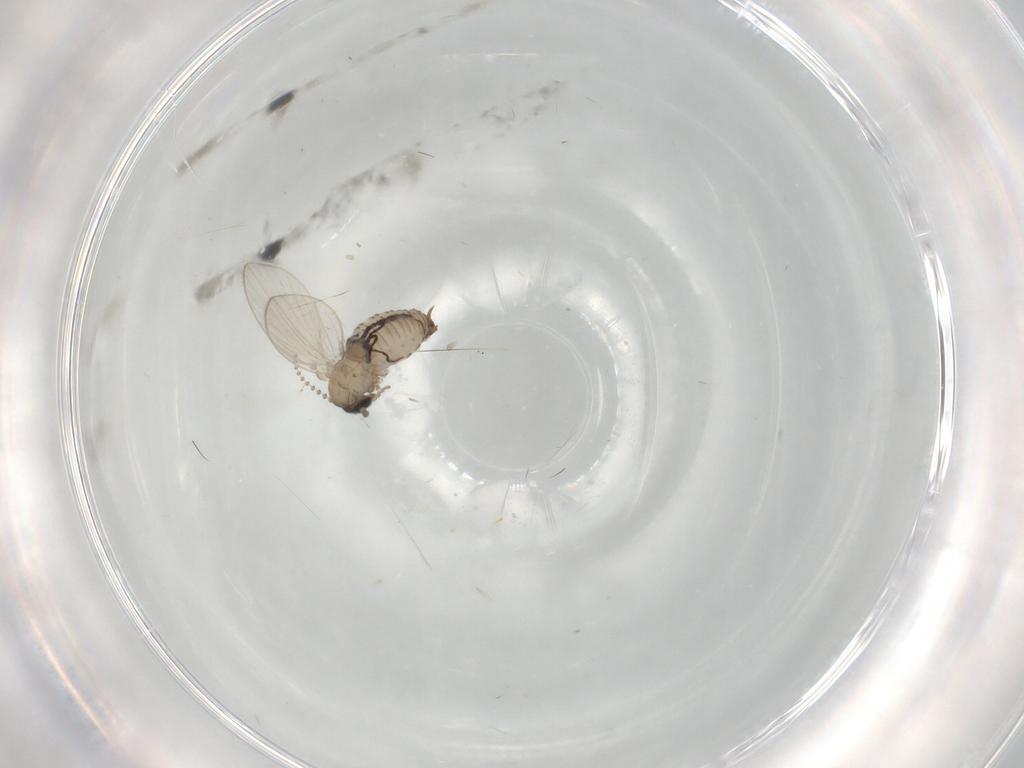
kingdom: Animalia
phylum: Arthropoda
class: Insecta
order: Diptera
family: Psychodidae
